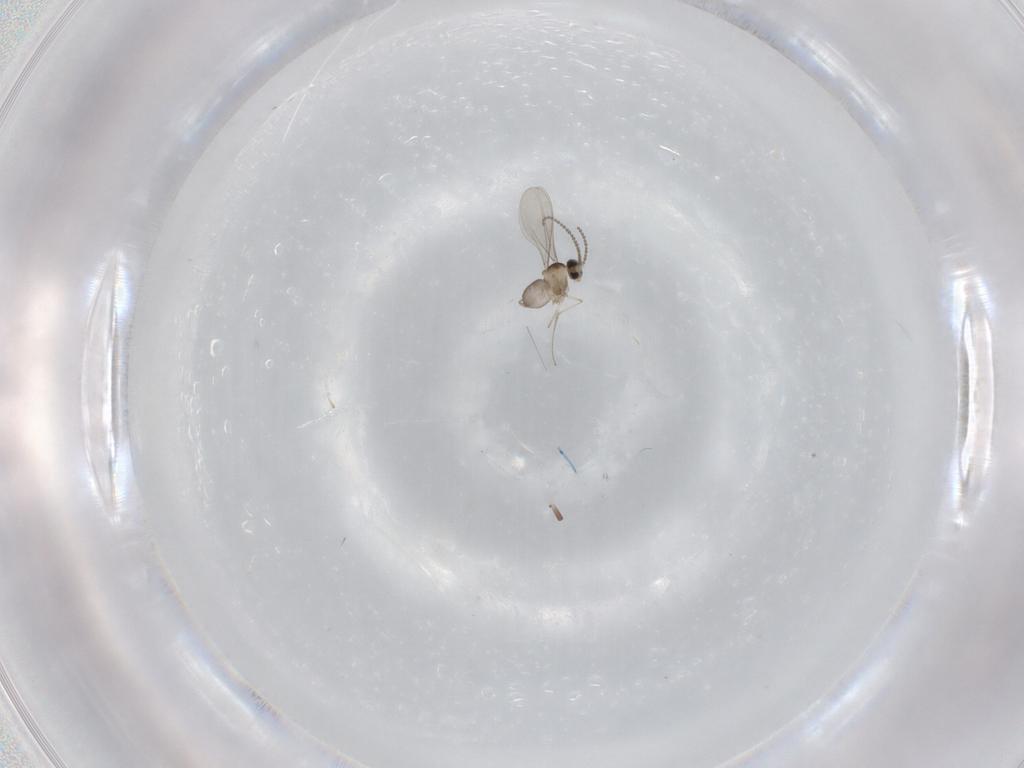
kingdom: Animalia
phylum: Arthropoda
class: Insecta
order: Diptera
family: Cecidomyiidae
